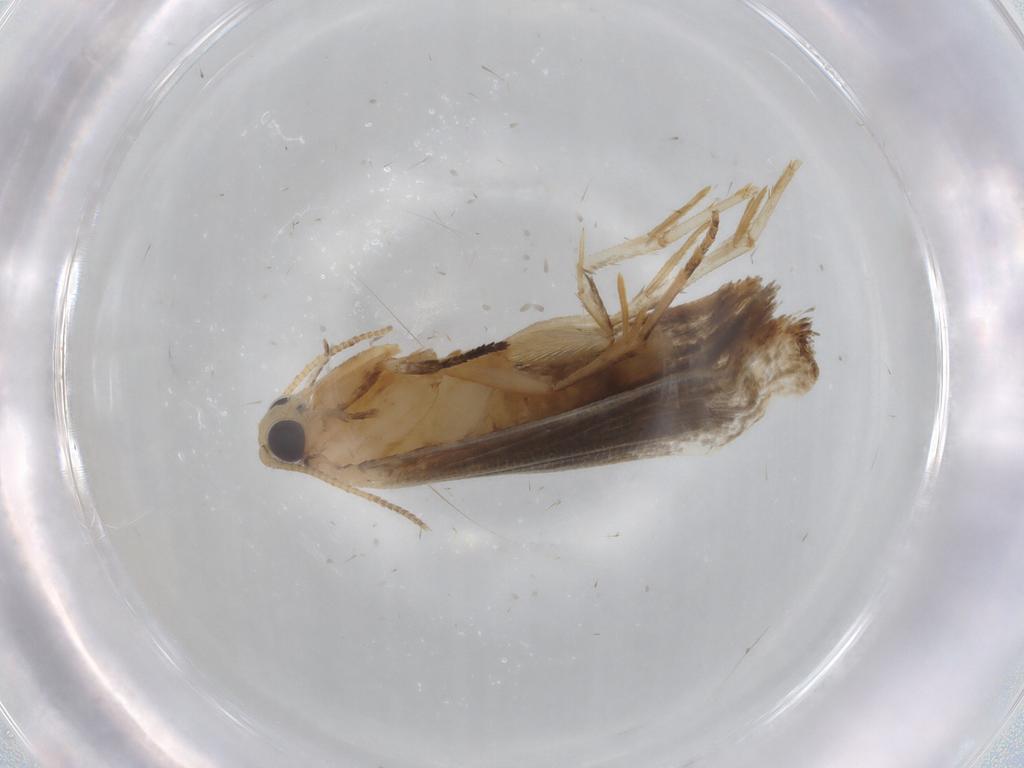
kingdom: Animalia
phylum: Arthropoda
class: Insecta
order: Lepidoptera
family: Tineidae
